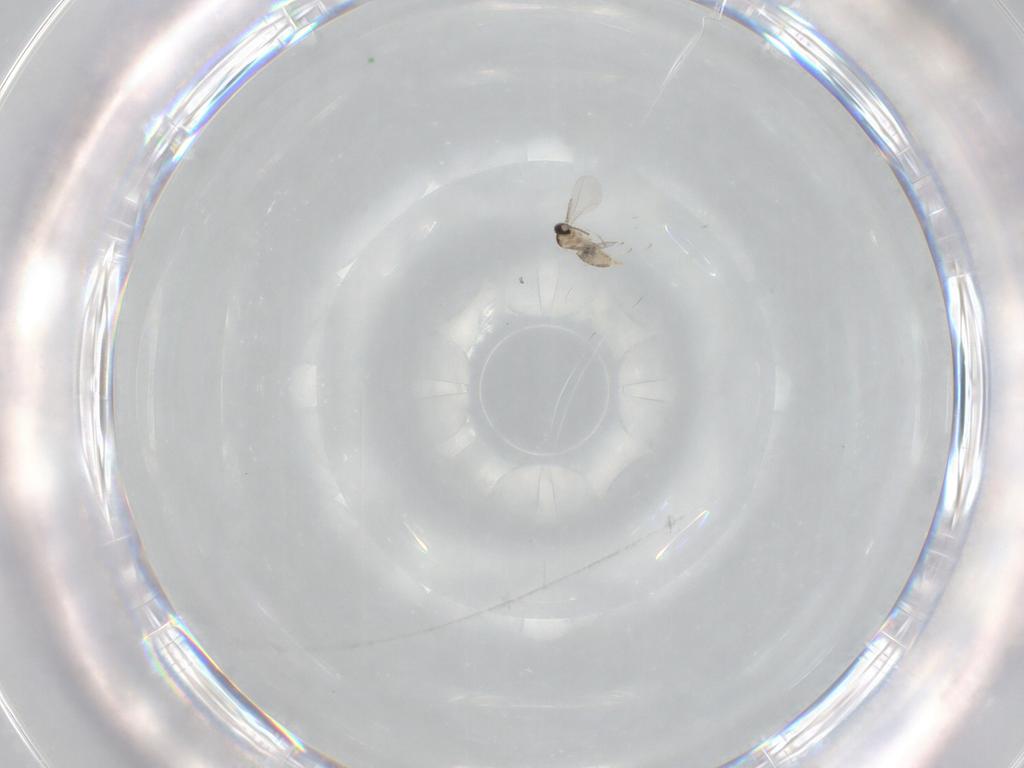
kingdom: Animalia
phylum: Arthropoda
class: Insecta
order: Diptera
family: Cecidomyiidae
